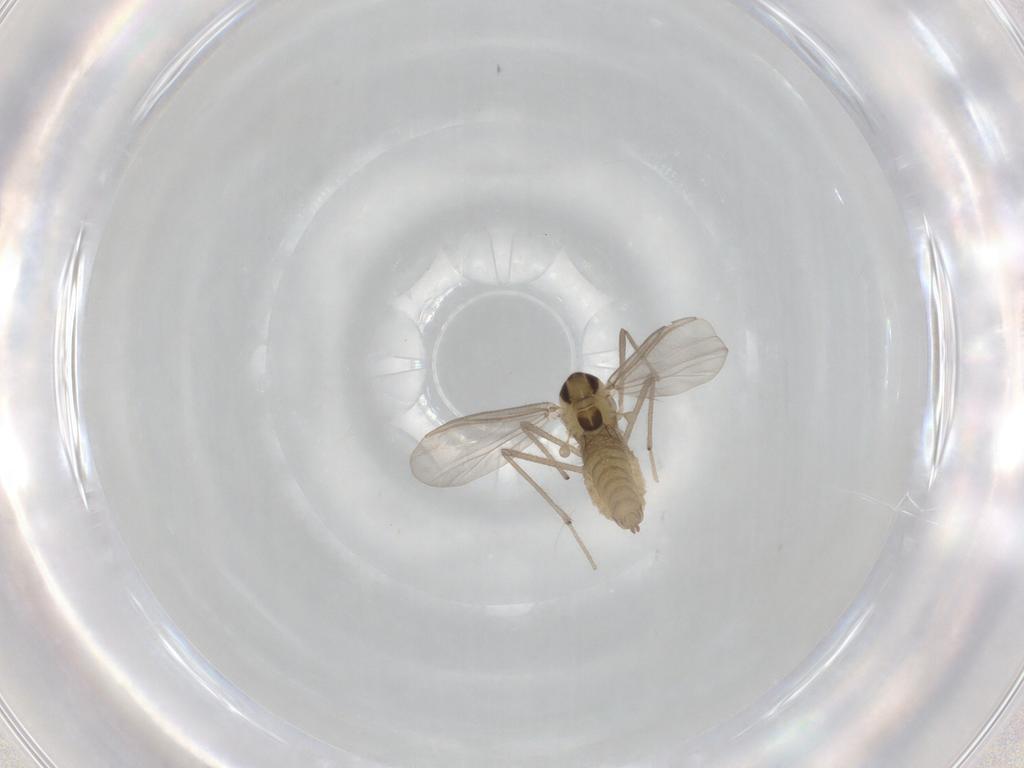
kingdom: Animalia
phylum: Arthropoda
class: Insecta
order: Diptera
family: Chironomidae
